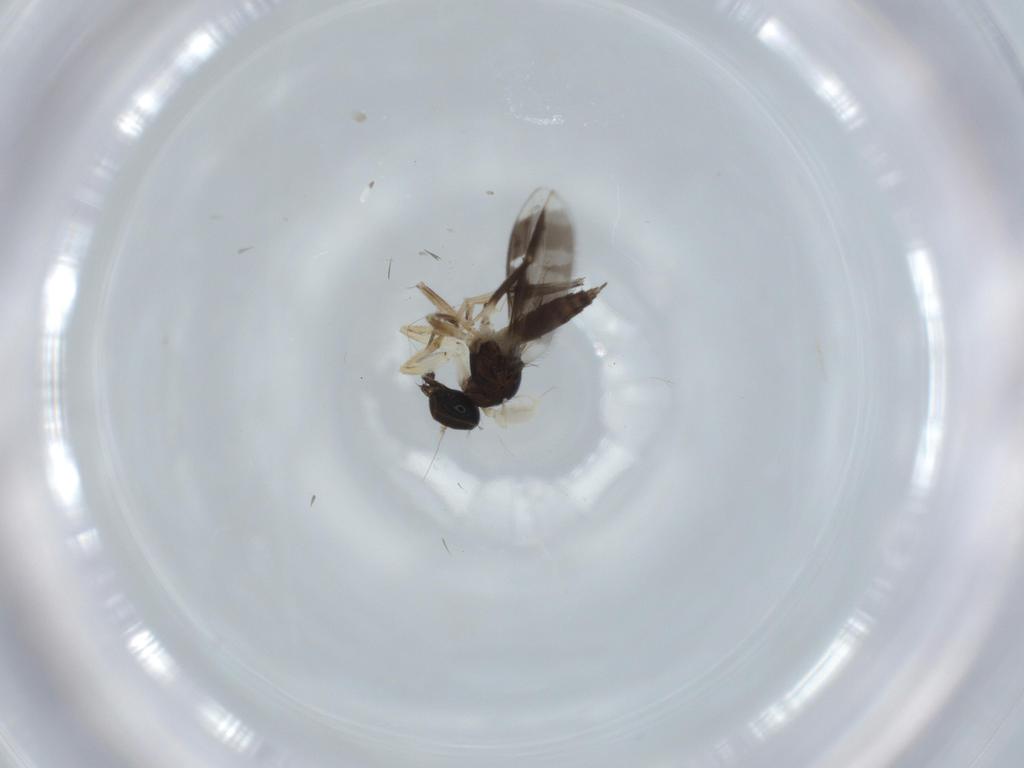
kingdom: Animalia
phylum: Arthropoda
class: Insecta
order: Diptera
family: Hybotidae
